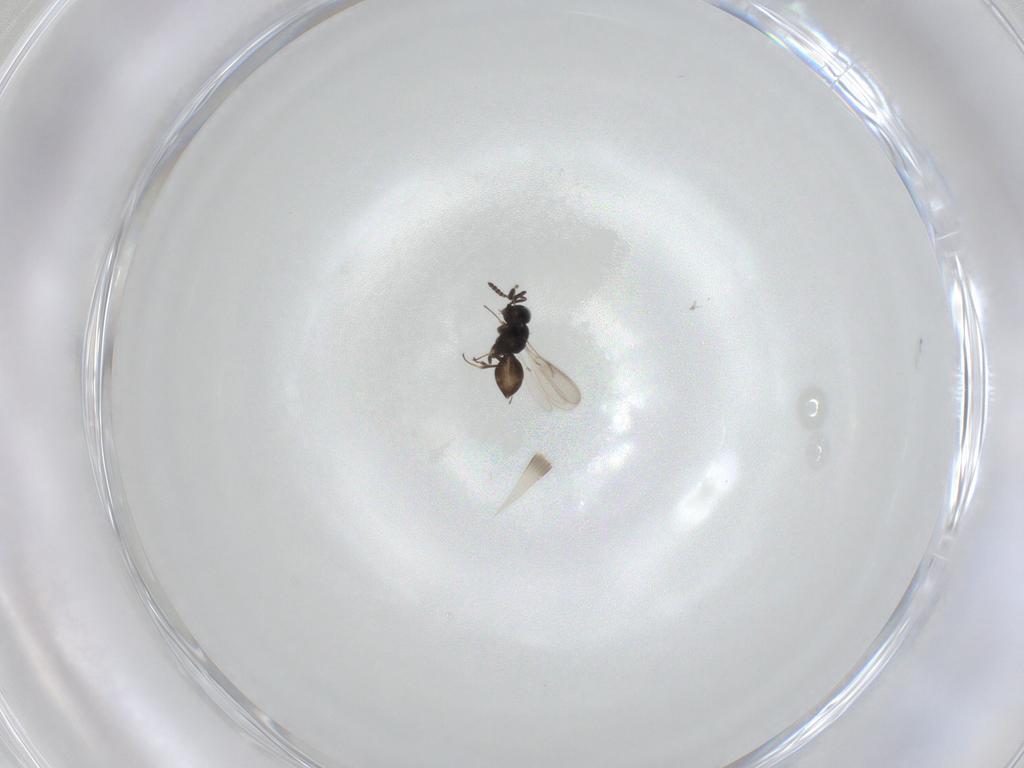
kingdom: Animalia
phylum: Arthropoda
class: Insecta
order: Hymenoptera
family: Scelionidae
